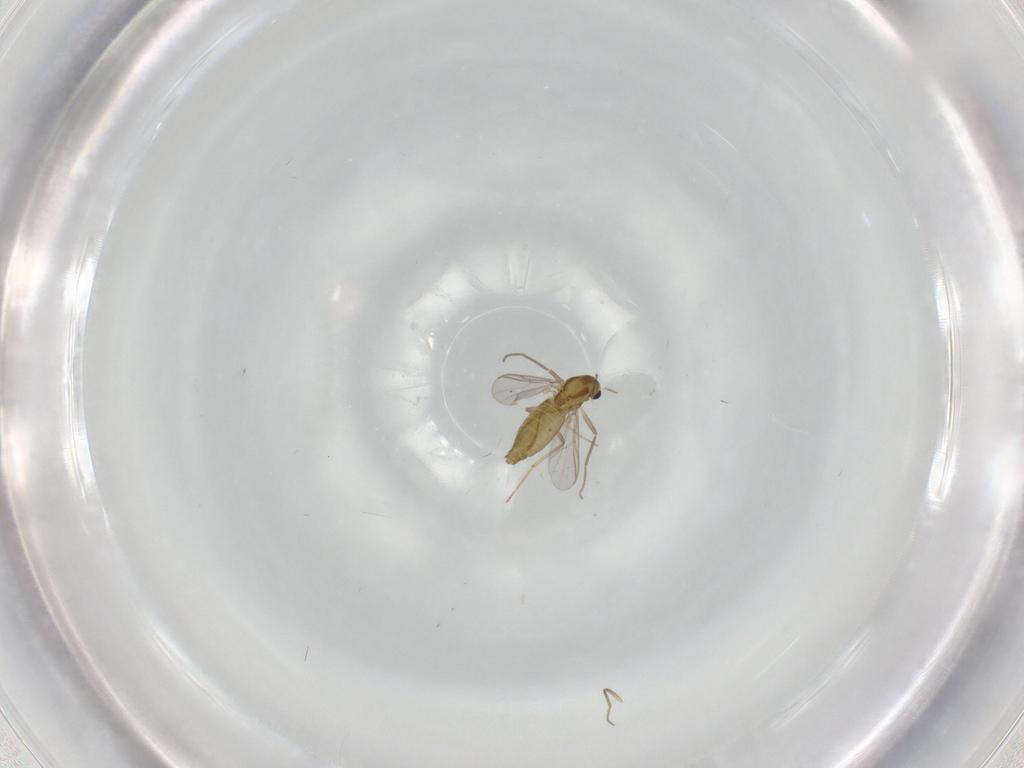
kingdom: Animalia
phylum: Arthropoda
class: Insecta
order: Diptera
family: Chironomidae
